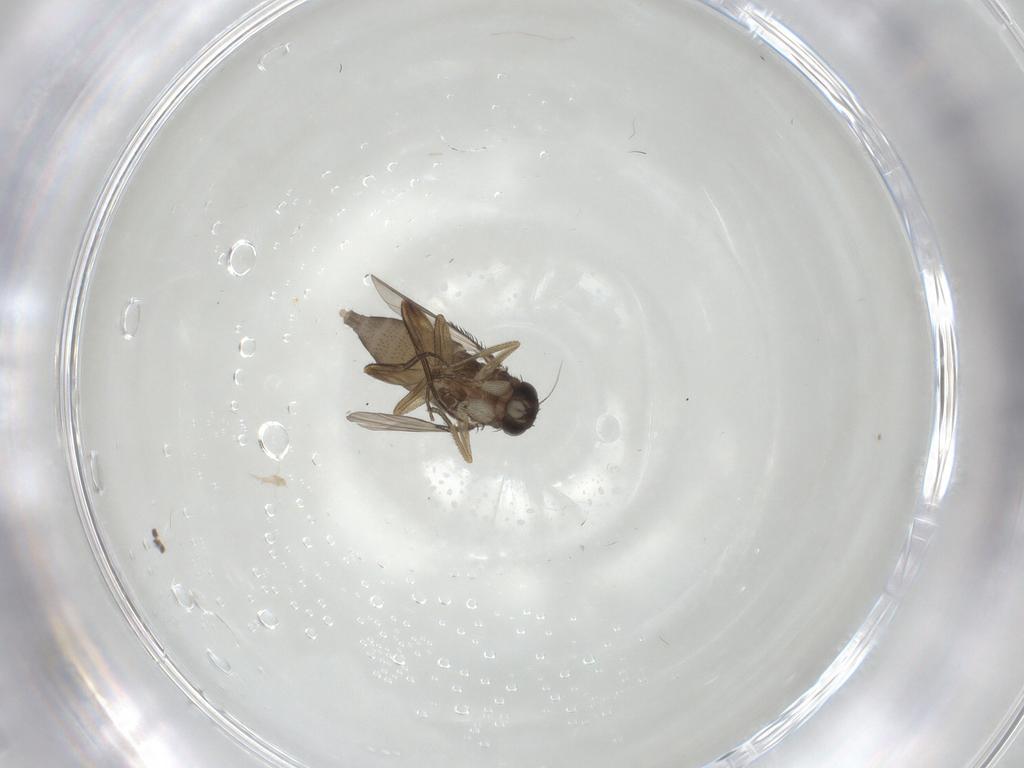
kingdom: Animalia
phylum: Arthropoda
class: Insecta
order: Diptera
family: Phoridae
